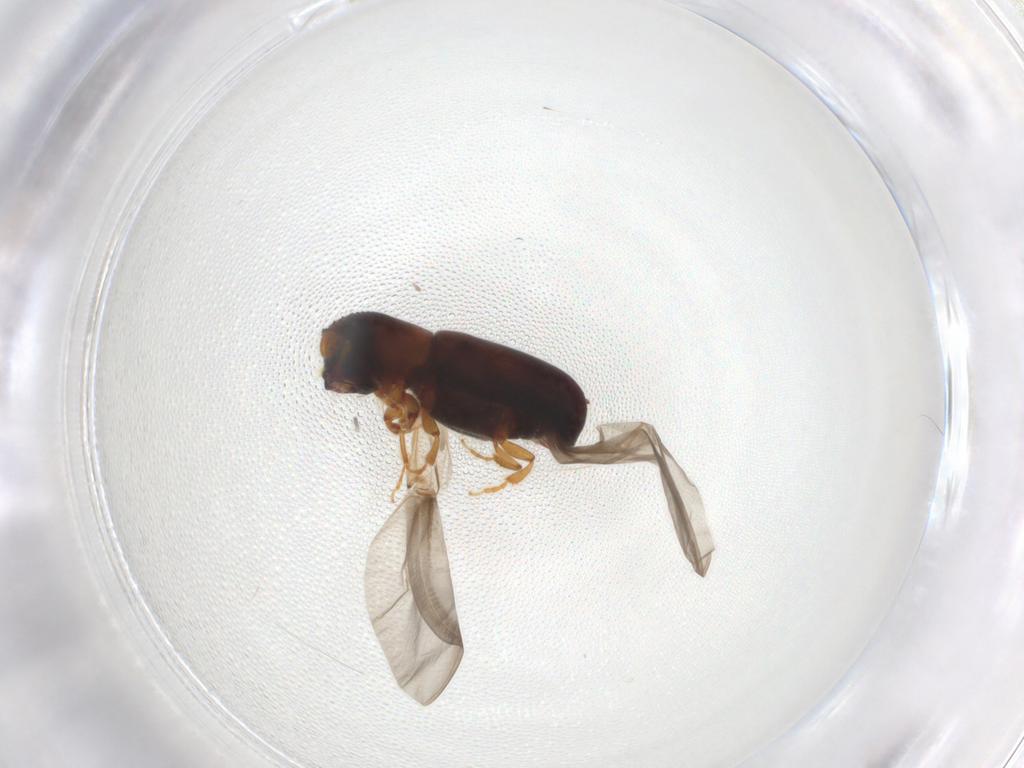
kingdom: Animalia
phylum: Arthropoda
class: Insecta
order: Coleoptera
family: Curculionidae
